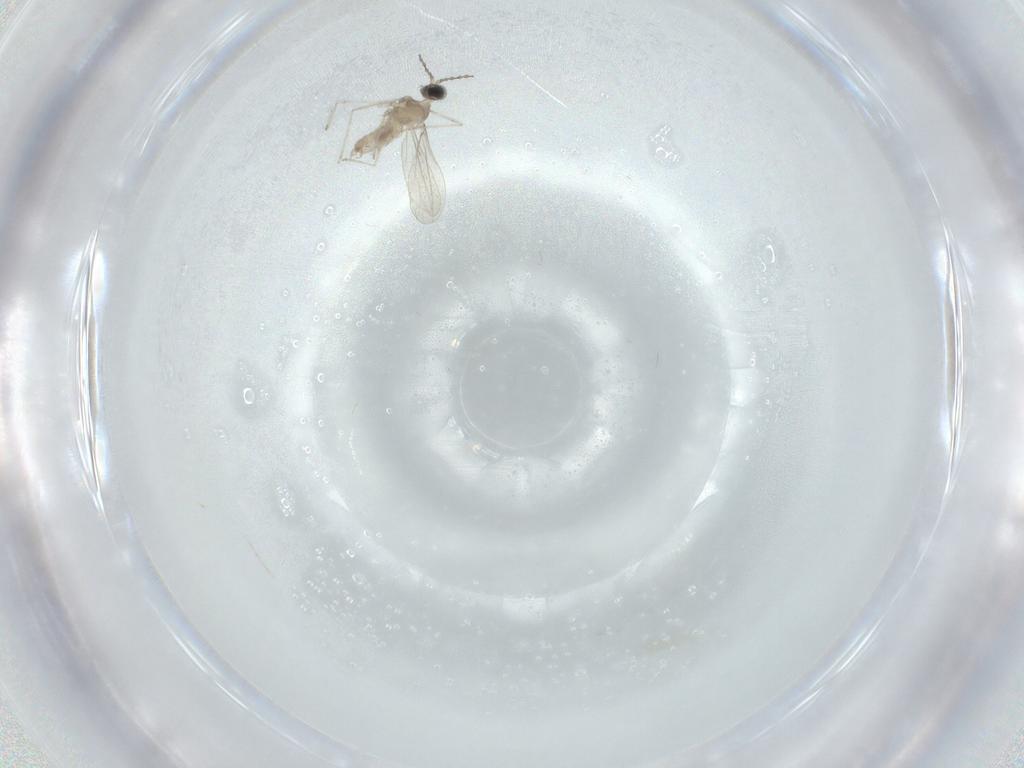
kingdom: Animalia
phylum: Arthropoda
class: Insecta
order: Diptera
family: Cecidomyiidae
